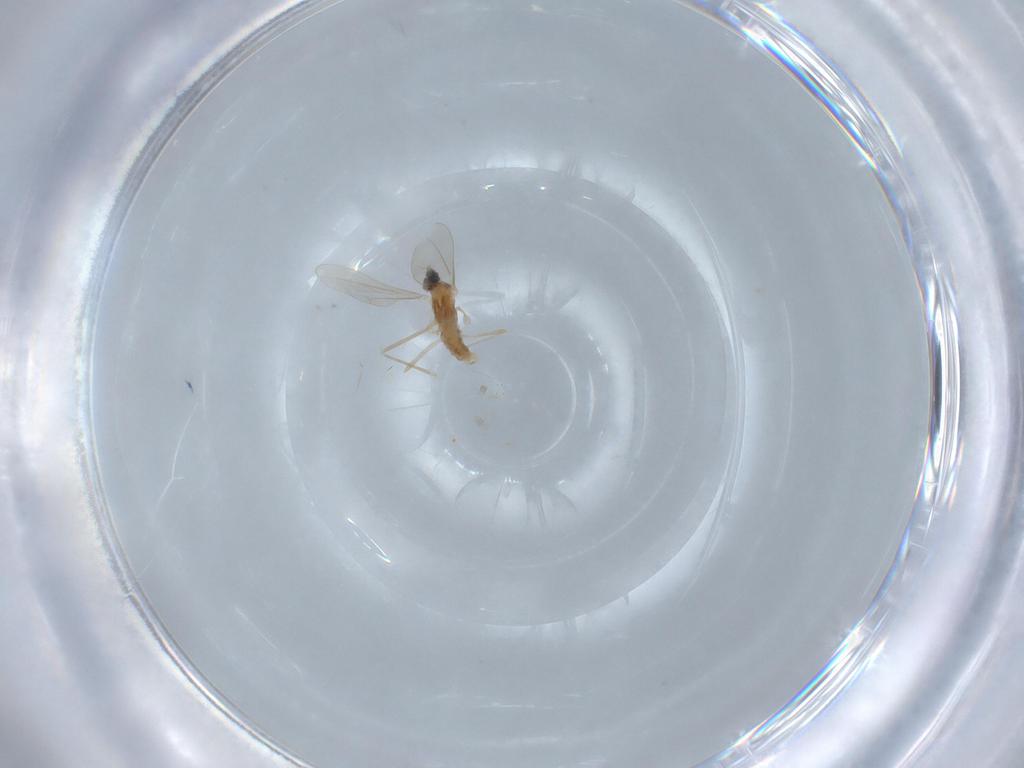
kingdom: Animalia
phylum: Arthropoda
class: Insecta
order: Diptera
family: Cecidomyiidae
